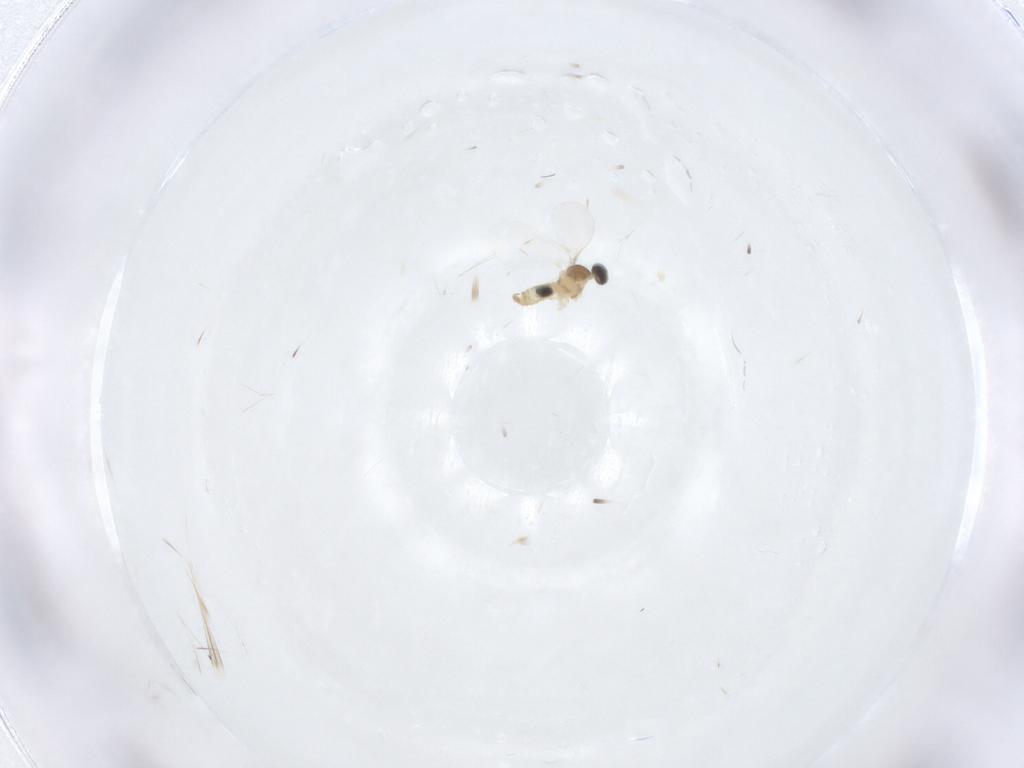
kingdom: Animalia
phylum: Arthropoda
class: Insecta
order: Diptera
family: Cecidomyiidae
